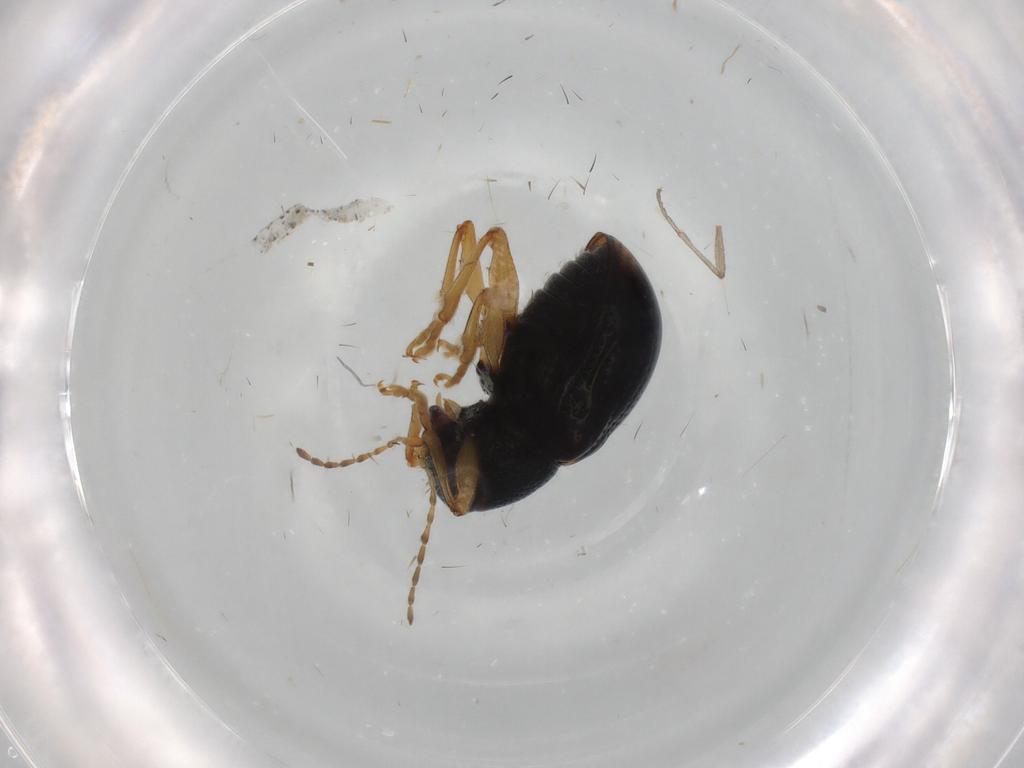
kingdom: Animalia
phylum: Arthropoda
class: Insecta
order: Coleoptera
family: Chrysomelidae
